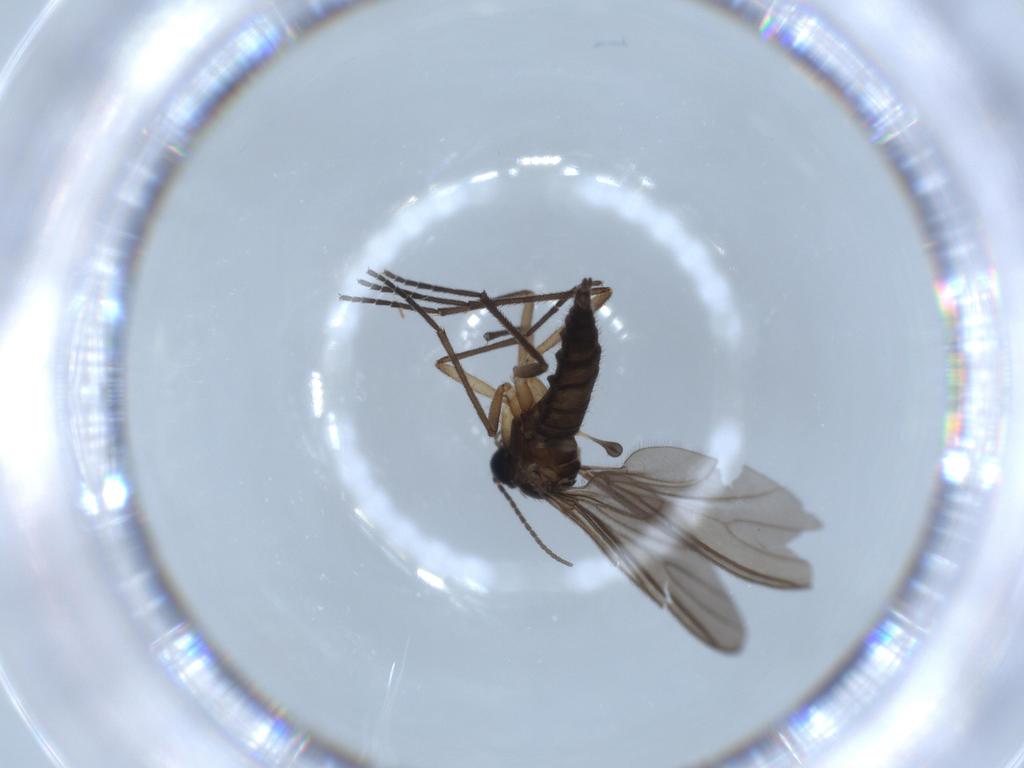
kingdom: Animalia
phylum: Arthropoda
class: Insecta
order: Diptera
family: Sciaridae
